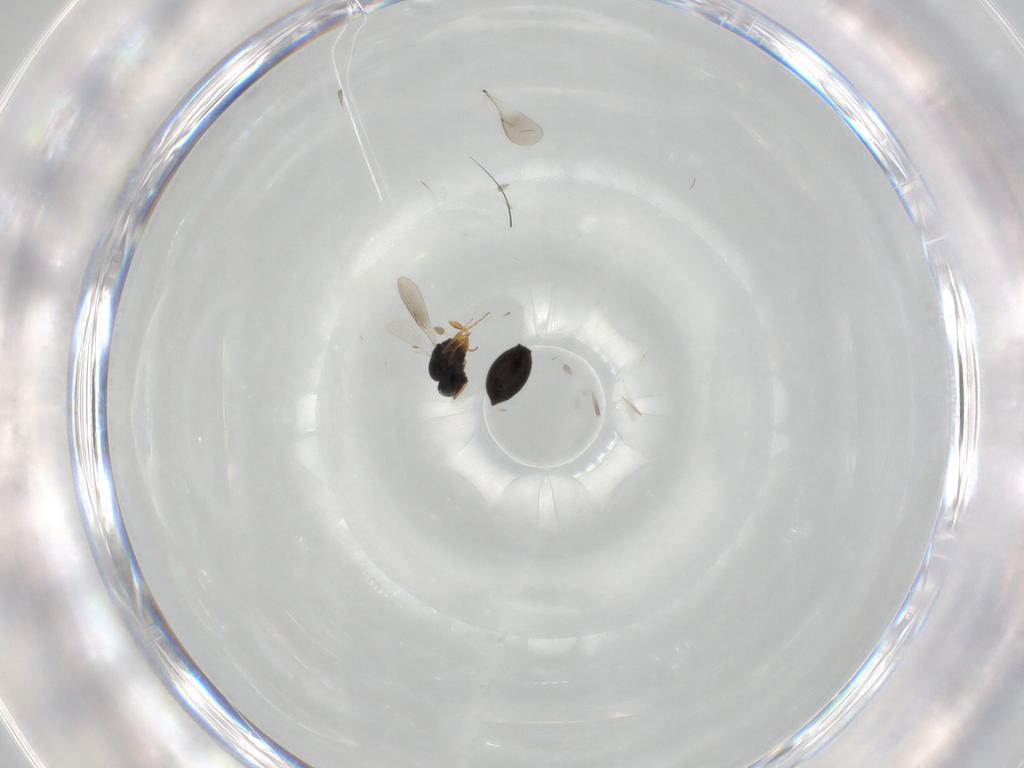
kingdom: Animalia
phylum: Arthropoda
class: Insecta
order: Hymenoptera
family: Scelionidae
